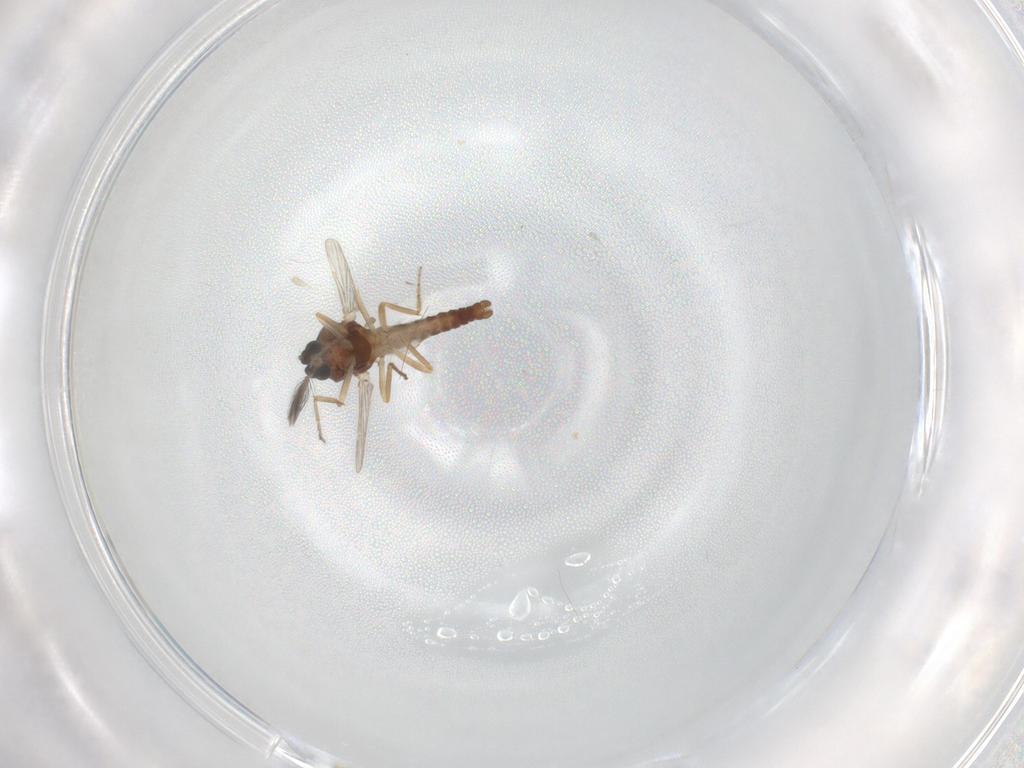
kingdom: Animalia
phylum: Arthropoda
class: Insecta
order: Diptera
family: Ceratopogonidae
